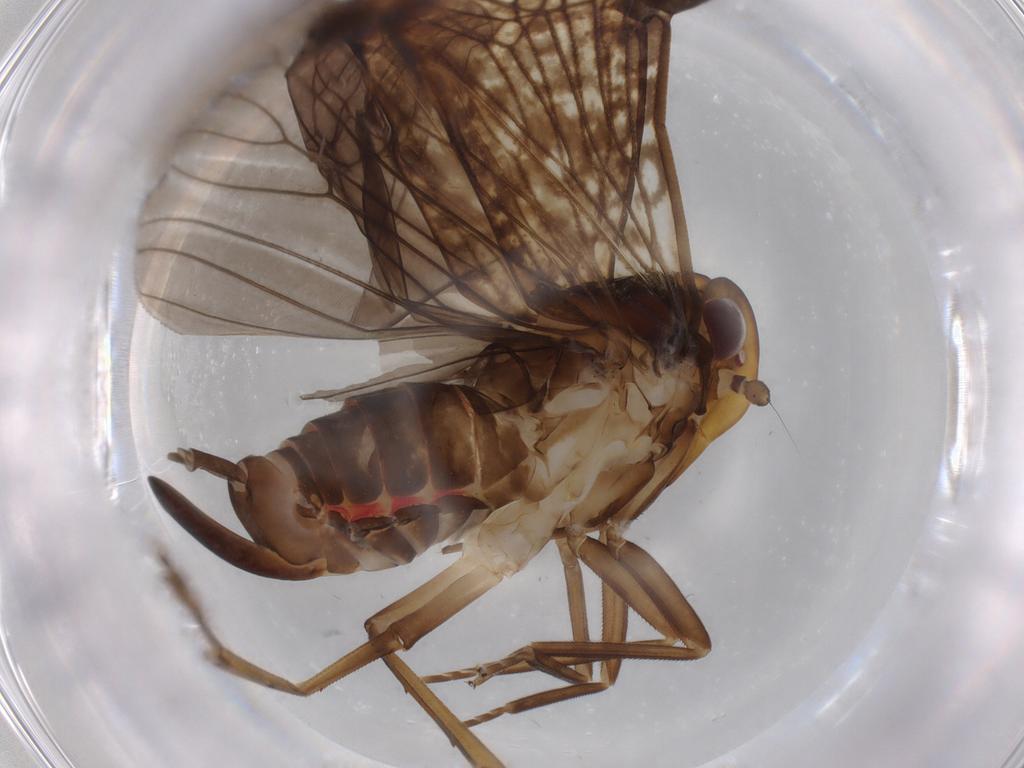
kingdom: Animalia
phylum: Arthropoda
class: Insecta
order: Hemiptera
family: Cixiidae
